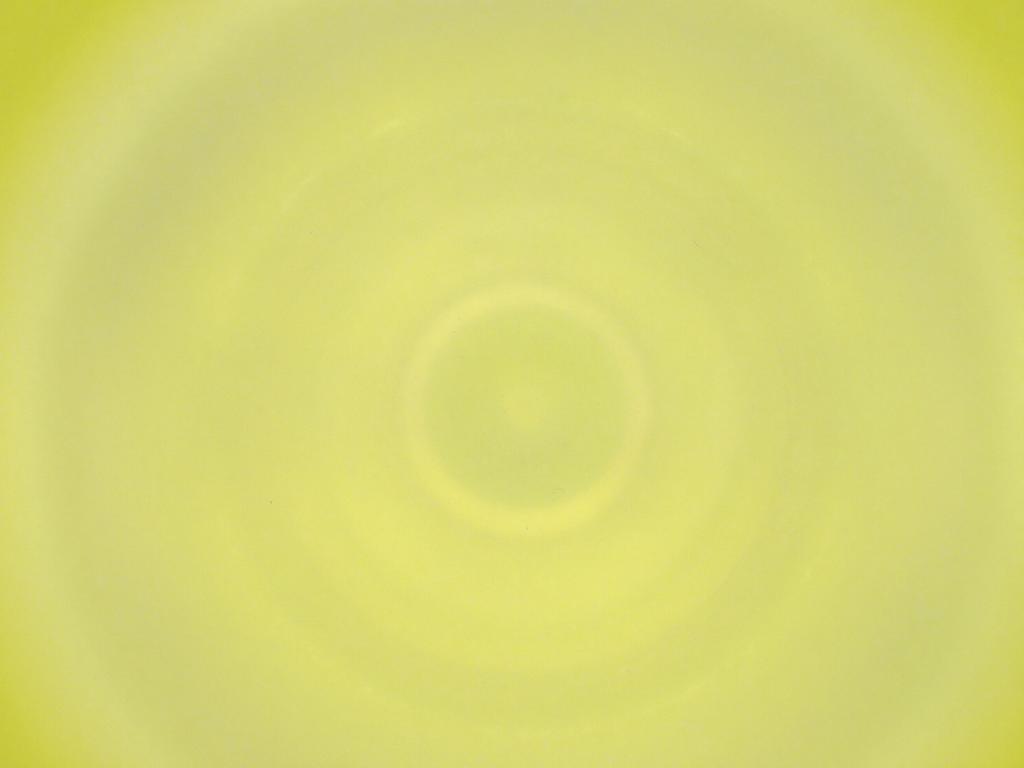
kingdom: Animalia
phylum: Arthropoda
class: Insecta
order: Diptera
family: Cecidomyiidae
